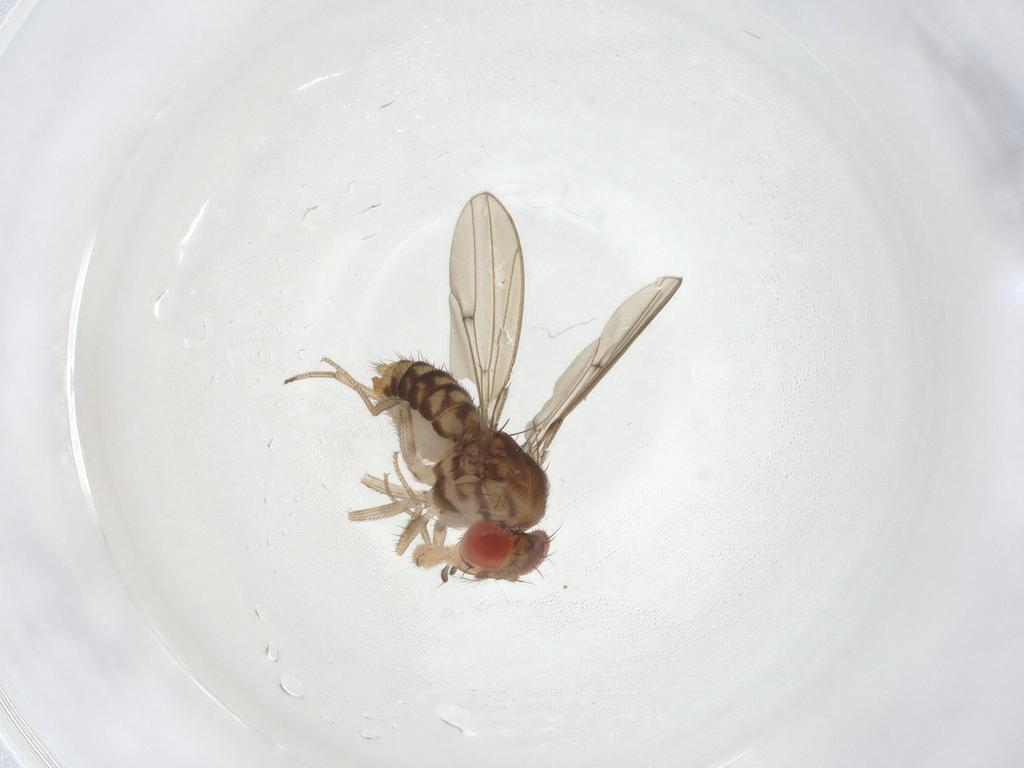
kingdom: Animalia
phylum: Arthropoda
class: Insecta
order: Diptera
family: Drosophilidae
